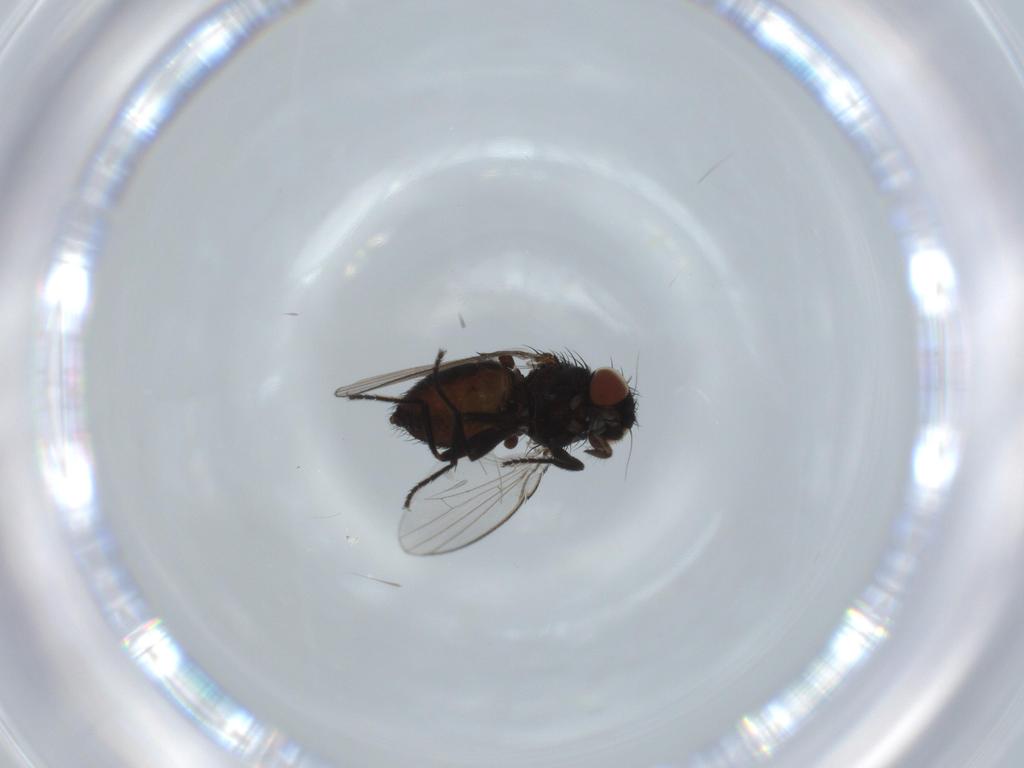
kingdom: Animalia
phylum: Arthropoda
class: Insecta
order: Diptera
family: Milichiidae
